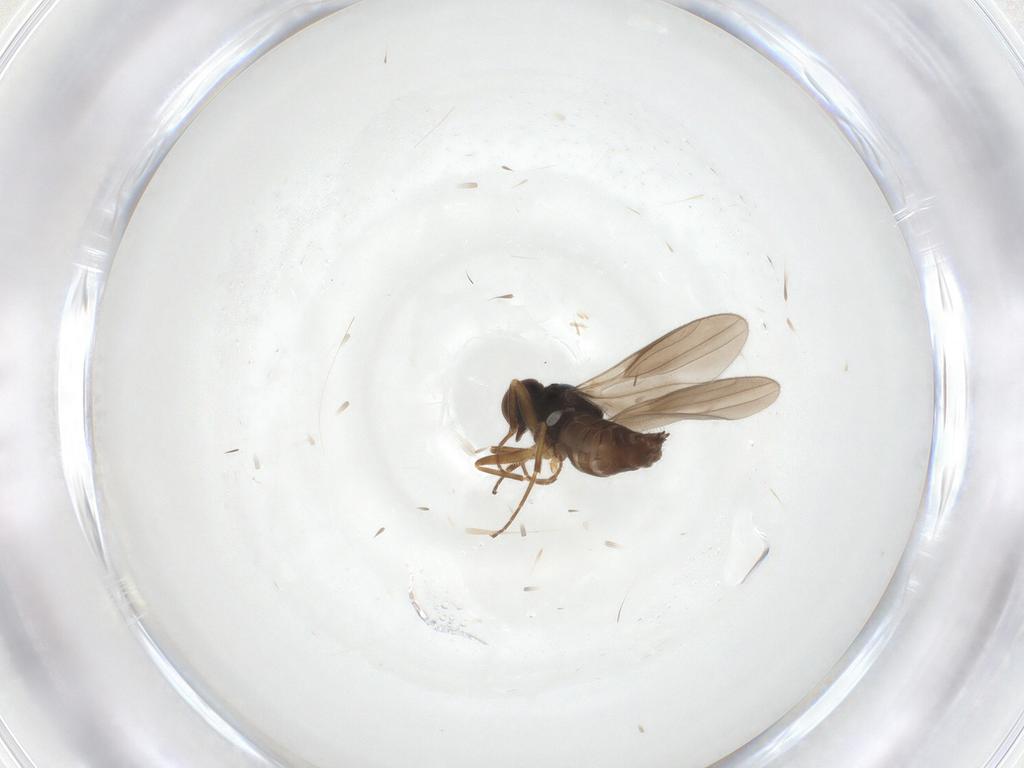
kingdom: Animalia
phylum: Arthropoda
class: Insecta
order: Diptera
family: Hybotidae
